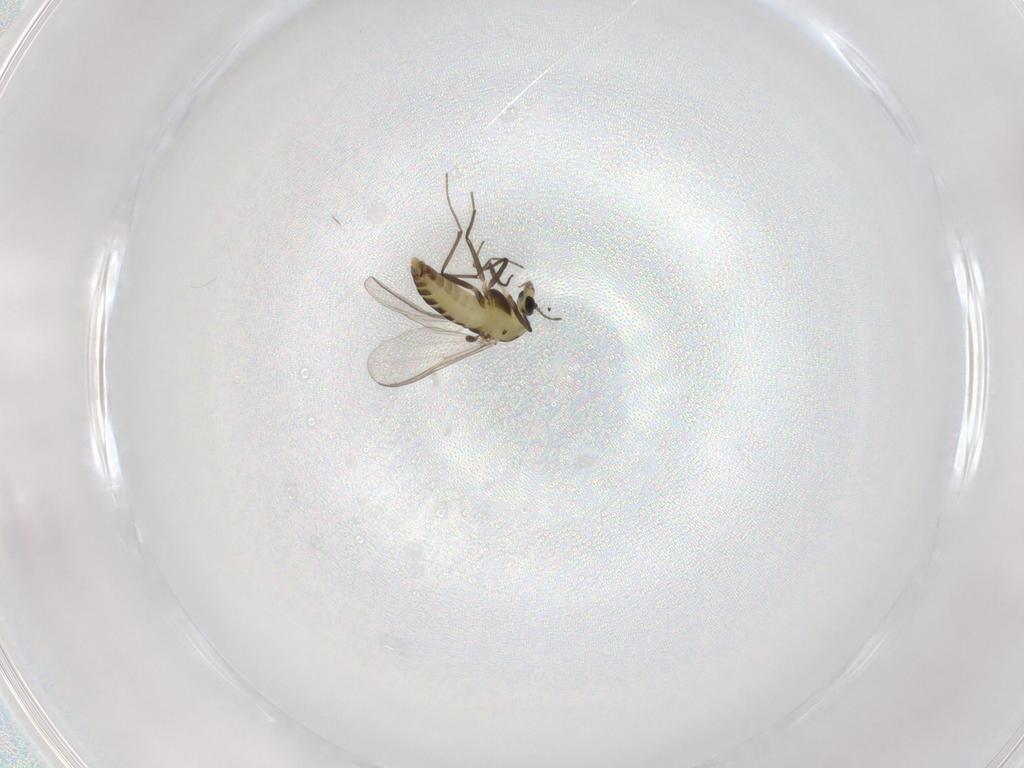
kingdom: Animalia
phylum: Arthropoda
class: Insecta
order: Diptera
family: Chironomidae
